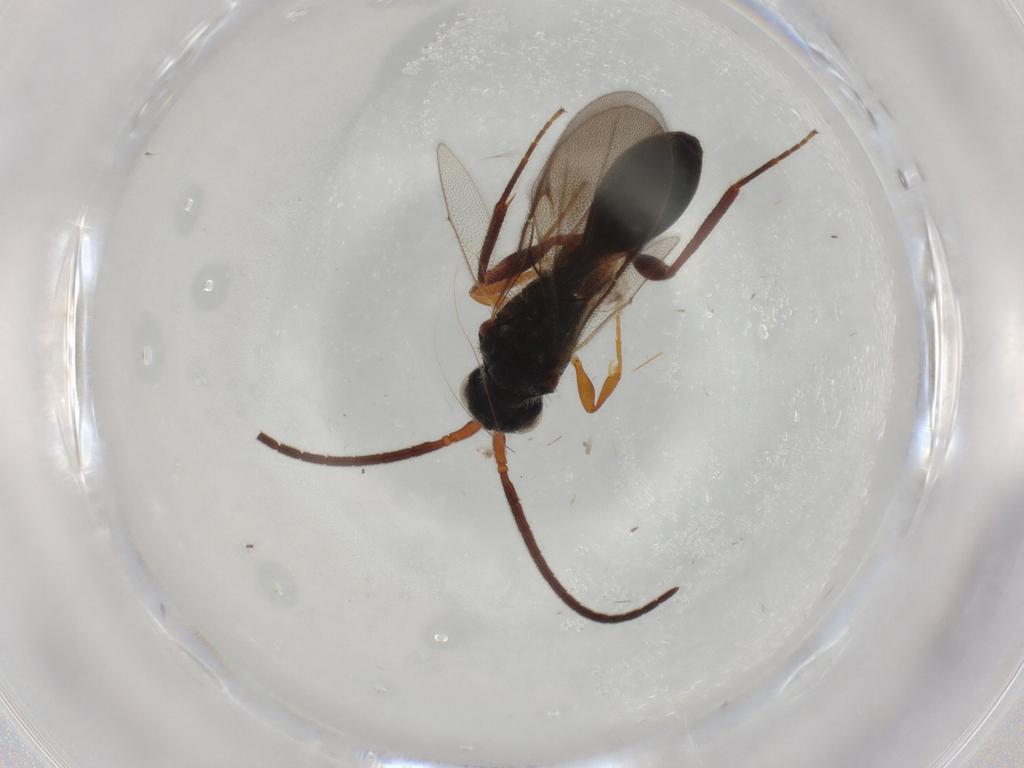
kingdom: Animalia
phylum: Arthropoda
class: Insecta
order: Hymenoptera
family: Diapriidae
